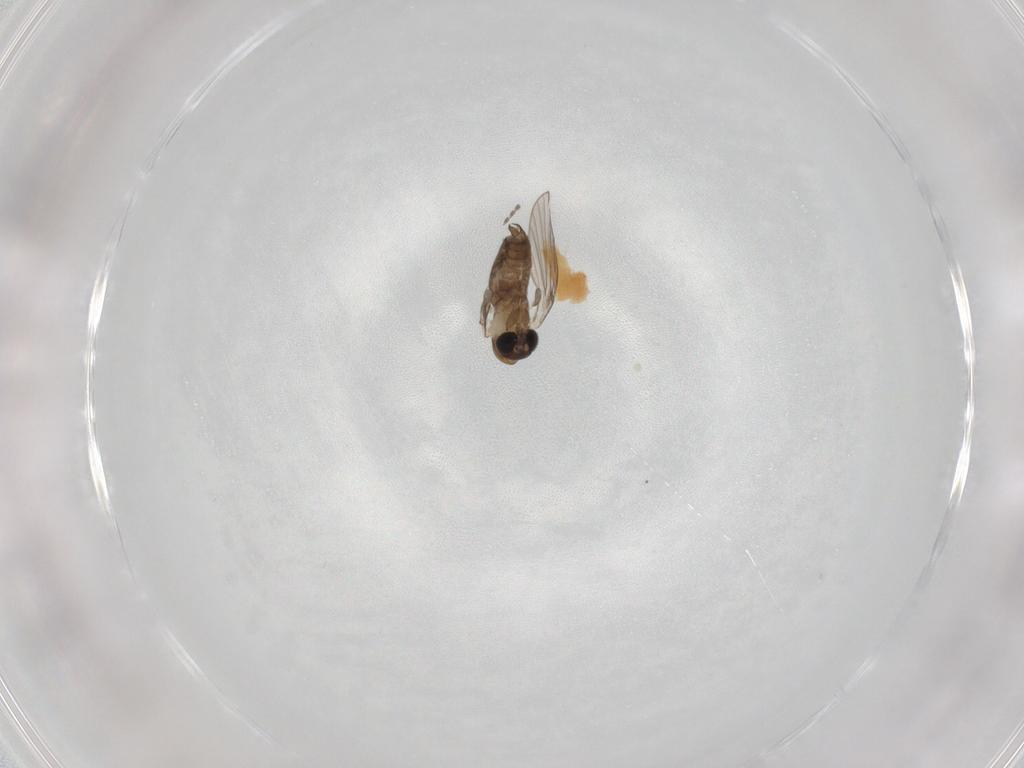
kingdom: Animalia
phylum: Arthropoda
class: Insecta
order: Diptera
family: Psychodidae
